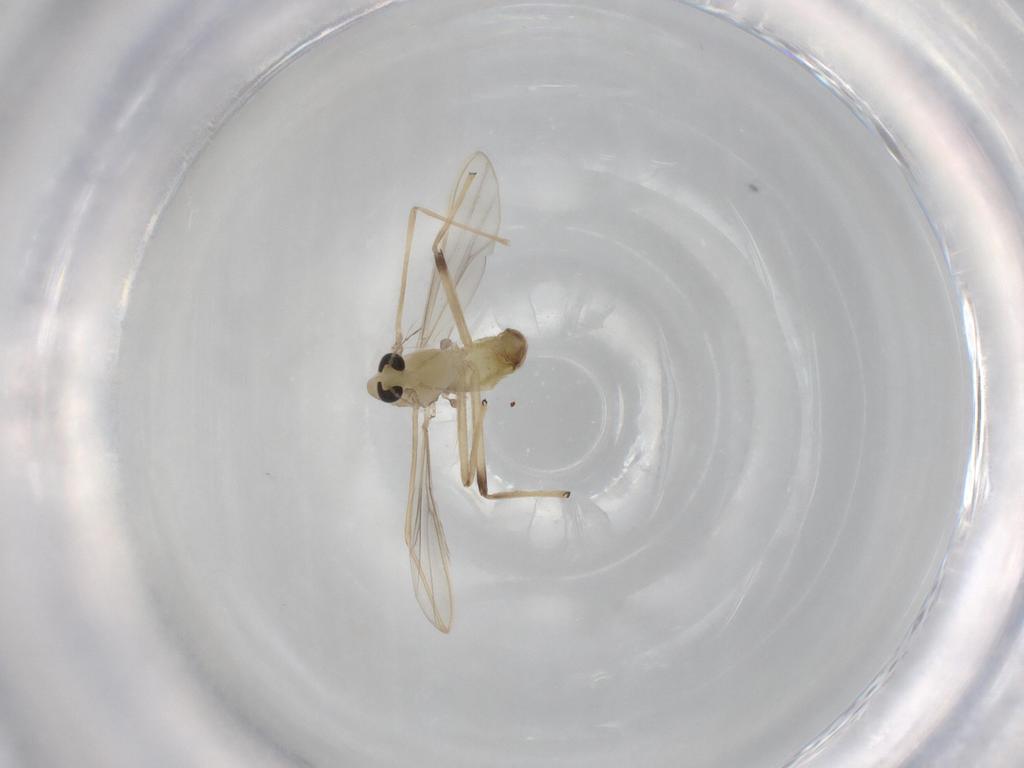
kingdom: Animalia
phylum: Arthropoda
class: Insecta
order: Diptera
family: Chironomidae
